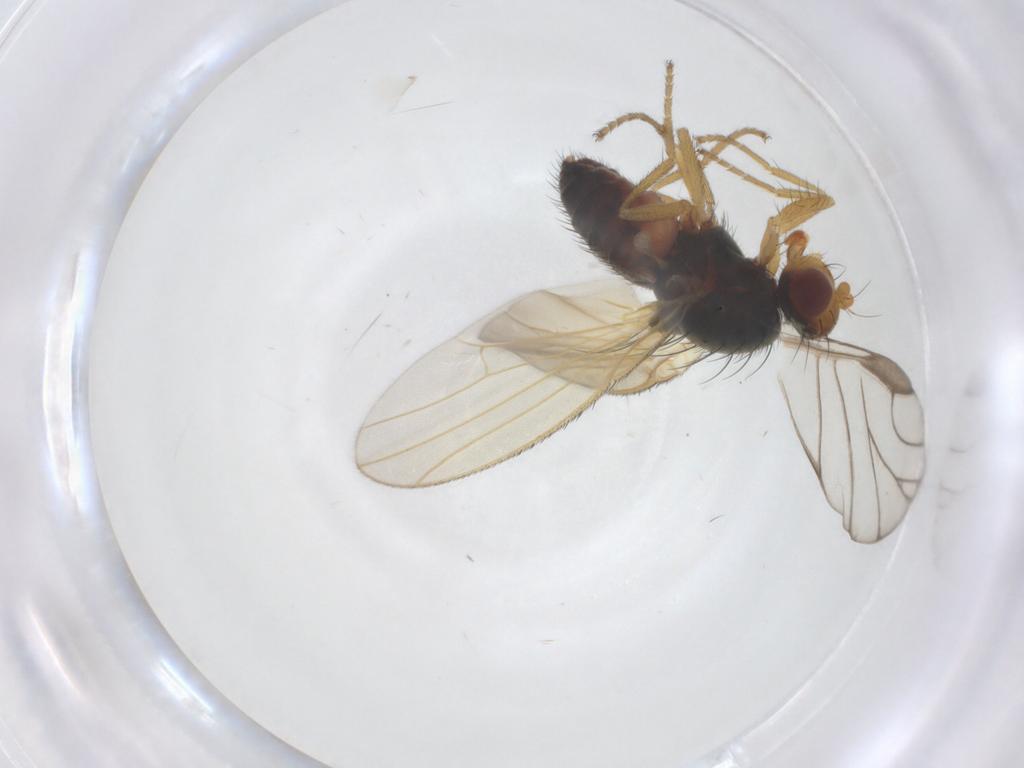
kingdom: Animalia
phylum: Arthropoda
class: Insecta
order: Diptera
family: Heleomyzidae
